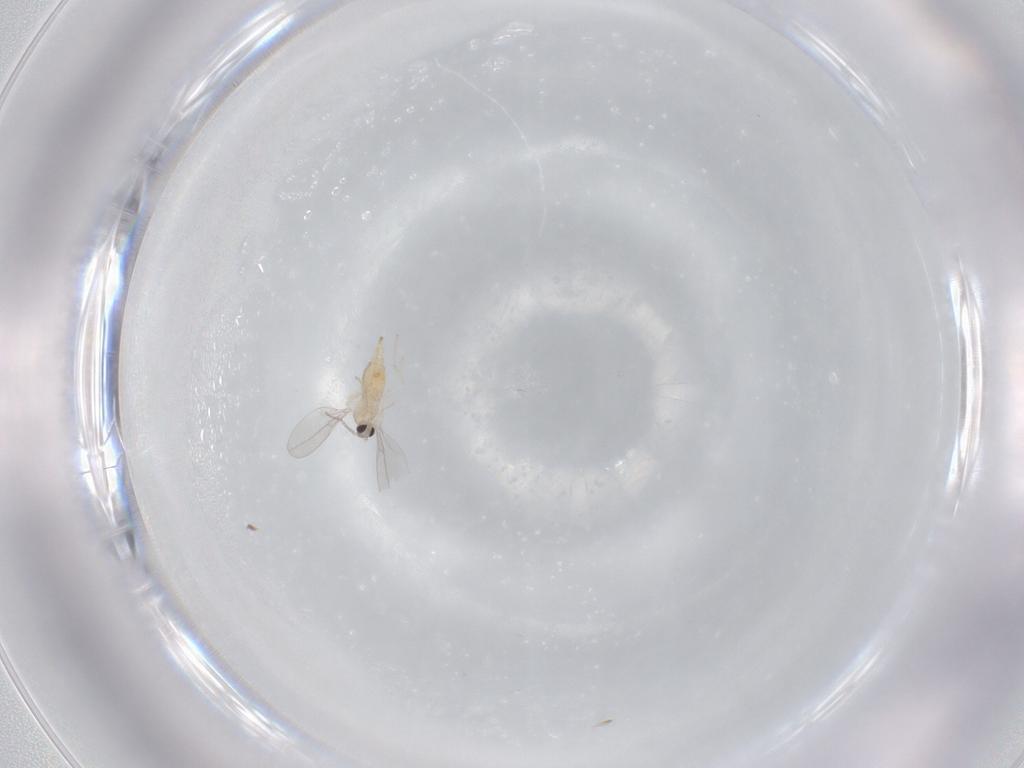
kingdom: Animalia
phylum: Arthropoda
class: Insecta
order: Diptera
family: Cecidomyiidae
